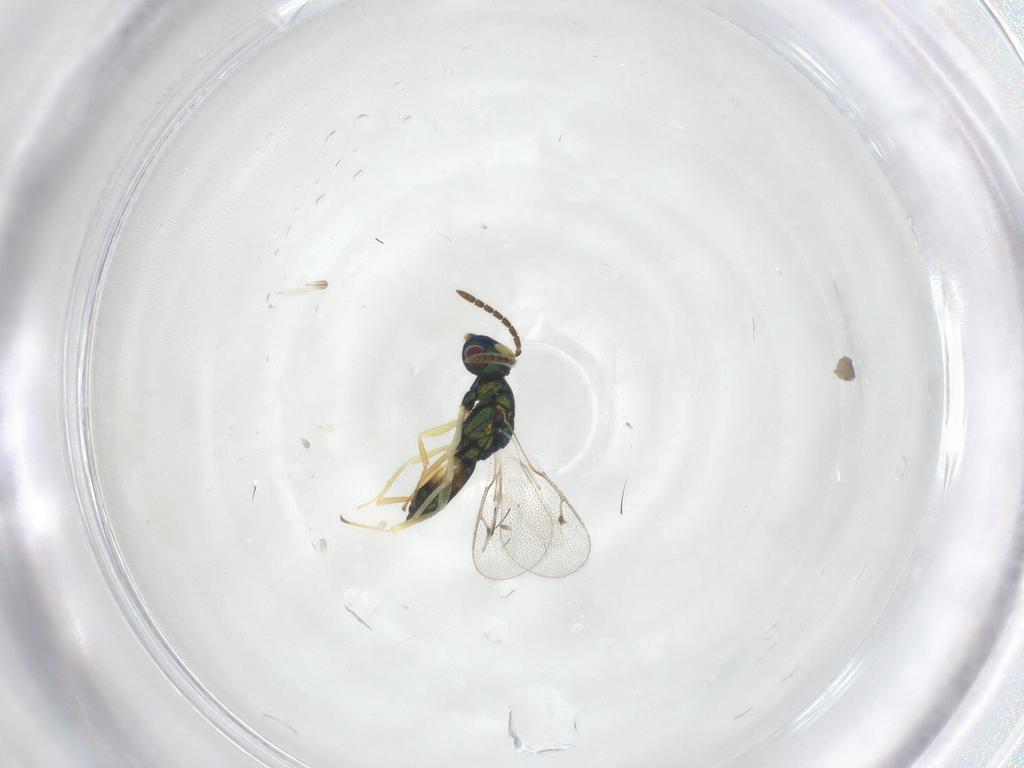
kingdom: Animalia
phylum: Arthropoda
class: Insecta
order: Hymenoptera
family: Pteromalidae
